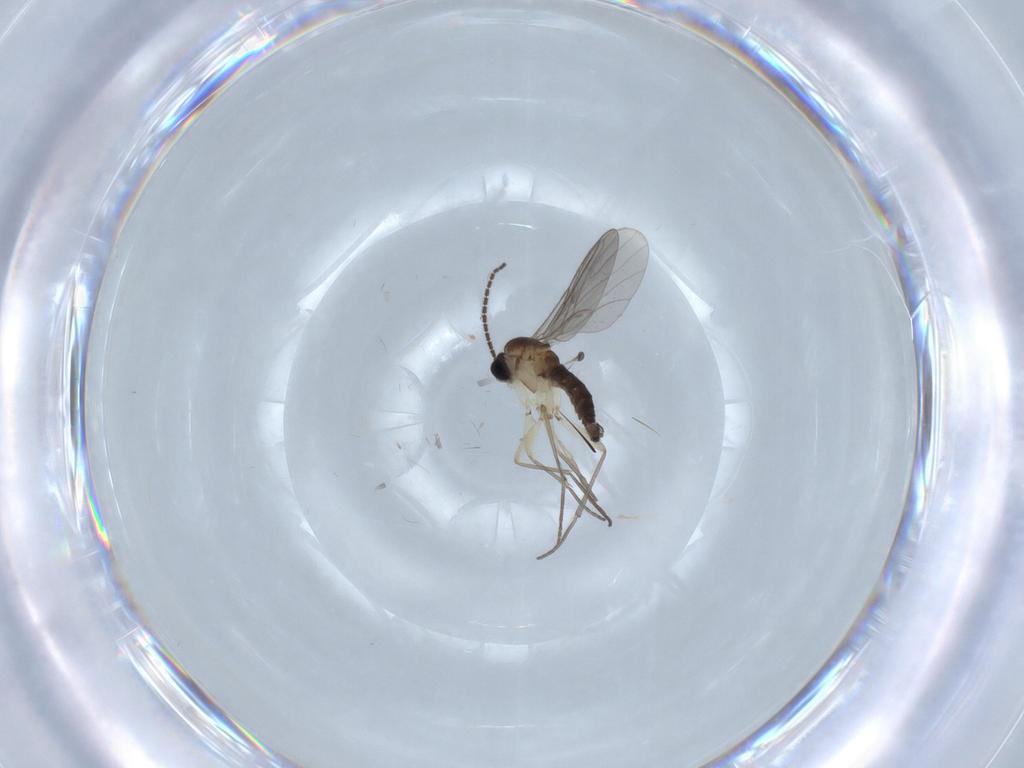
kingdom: Animalia
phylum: Arthropoda
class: Insecta
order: Diptera
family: Sciaridae
